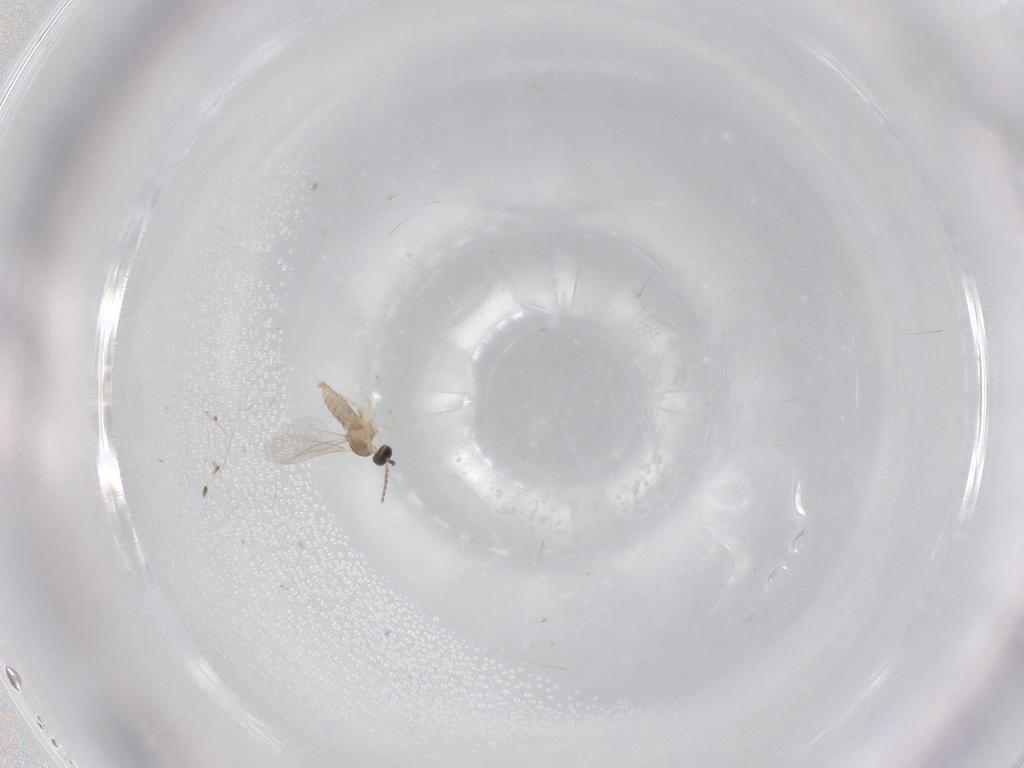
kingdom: Animalia
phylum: Arthropoda
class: Insecta
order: Diptera
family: Cecidomyiidae
